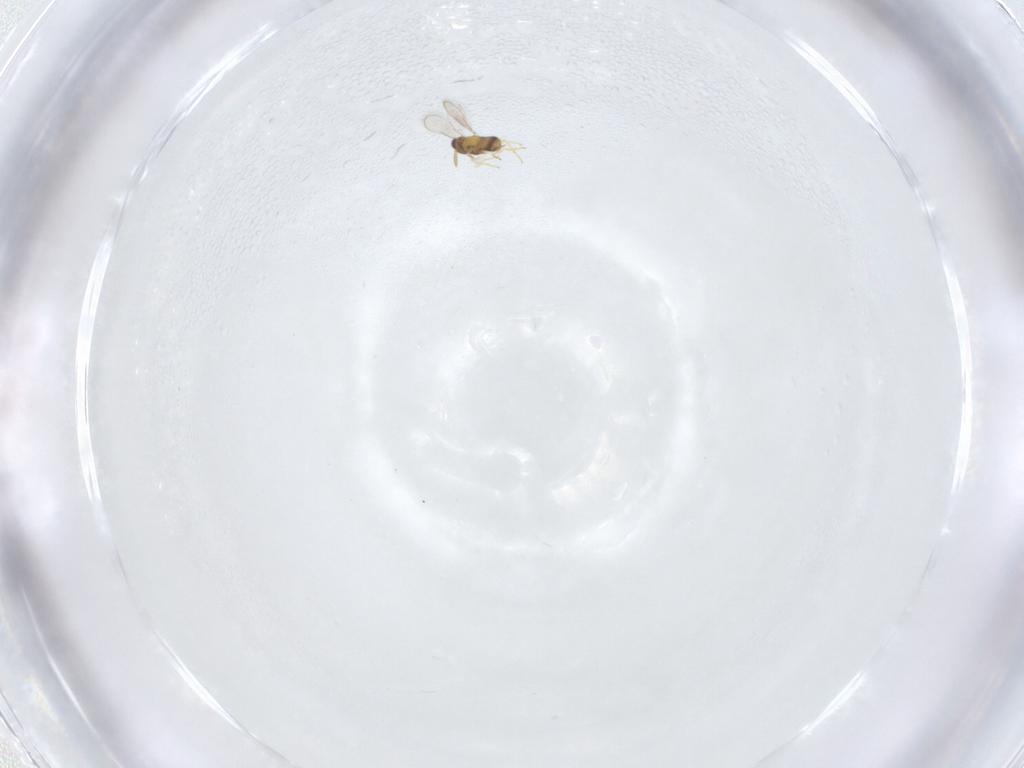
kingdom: Animalia
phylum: Arthropoda
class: Insecta
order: Hymenoptera
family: Aphelinidae
